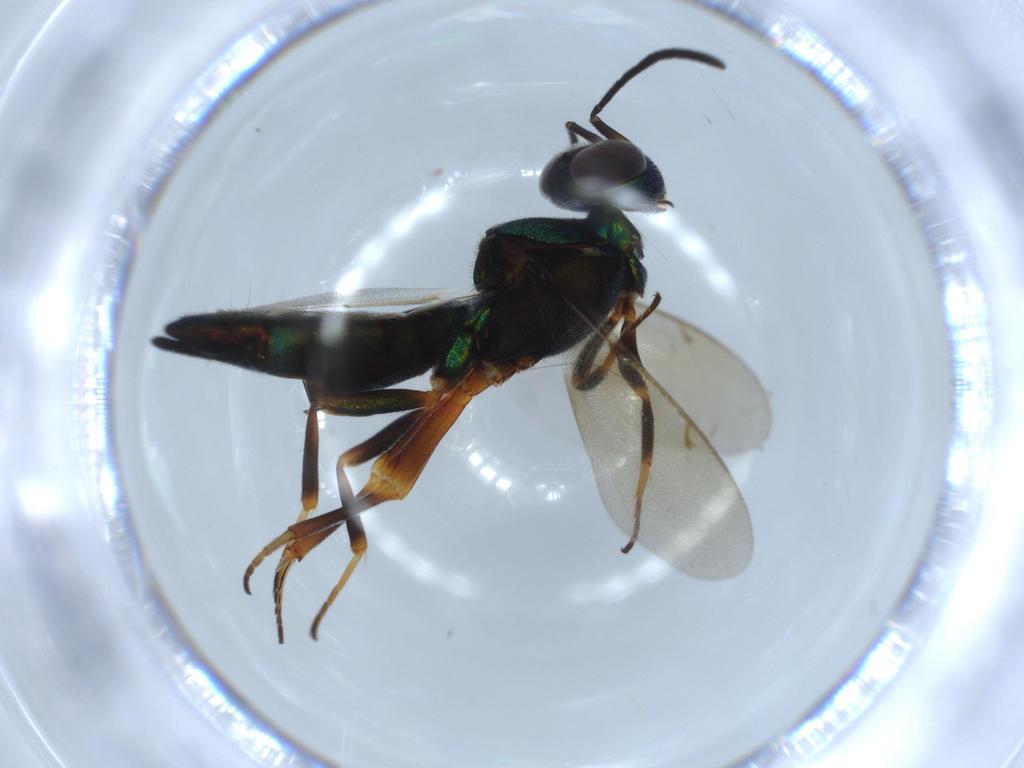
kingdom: Animalia
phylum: Arthropoda
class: Insecta
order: Hymenoptera
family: Eupelmidae
